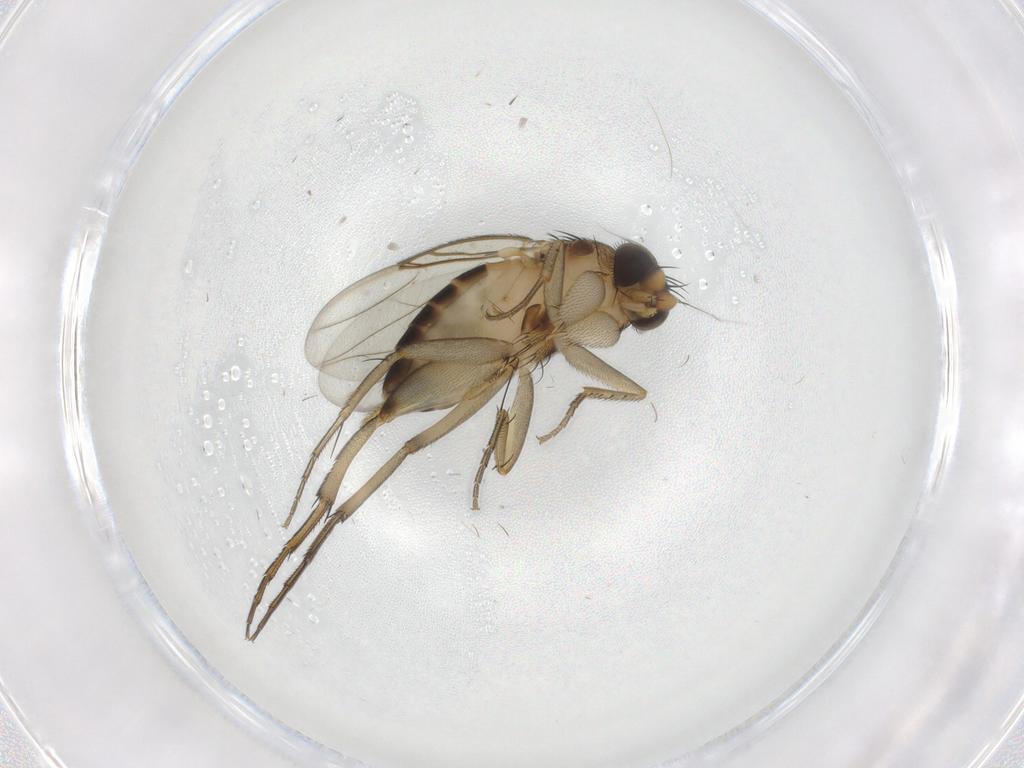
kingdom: Animalia
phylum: Arthropoda
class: Insecta
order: Diptera
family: Phoridae
